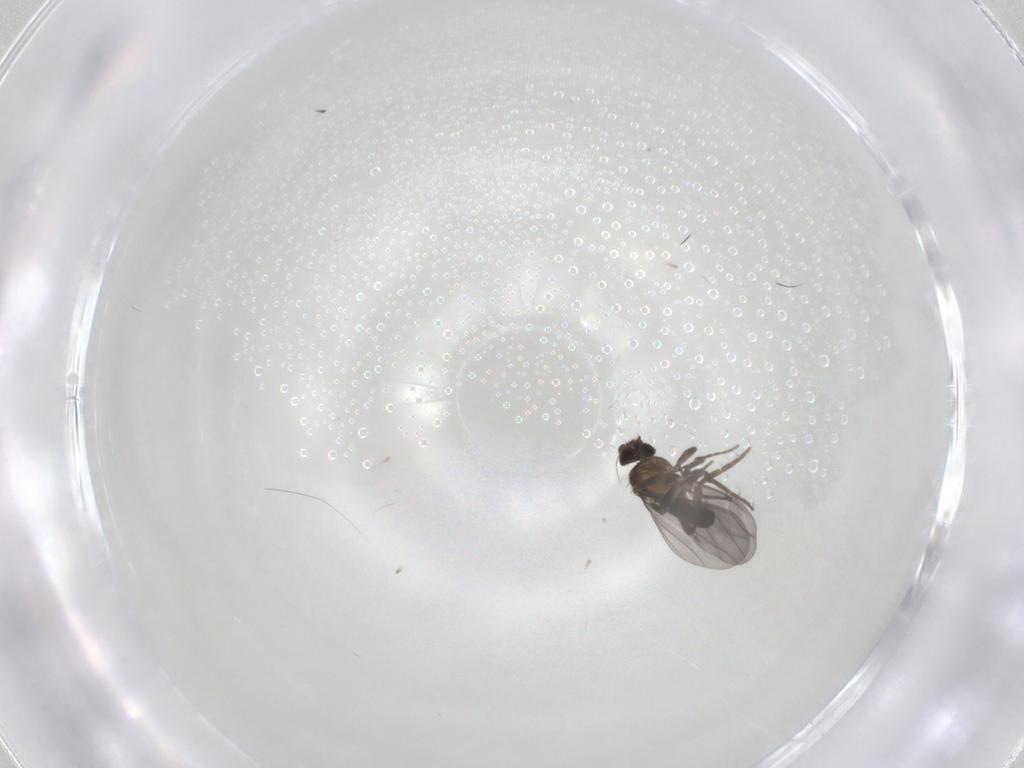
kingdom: Animalia
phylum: Arthropoda
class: Insecta
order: Diptera
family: Phoridae
